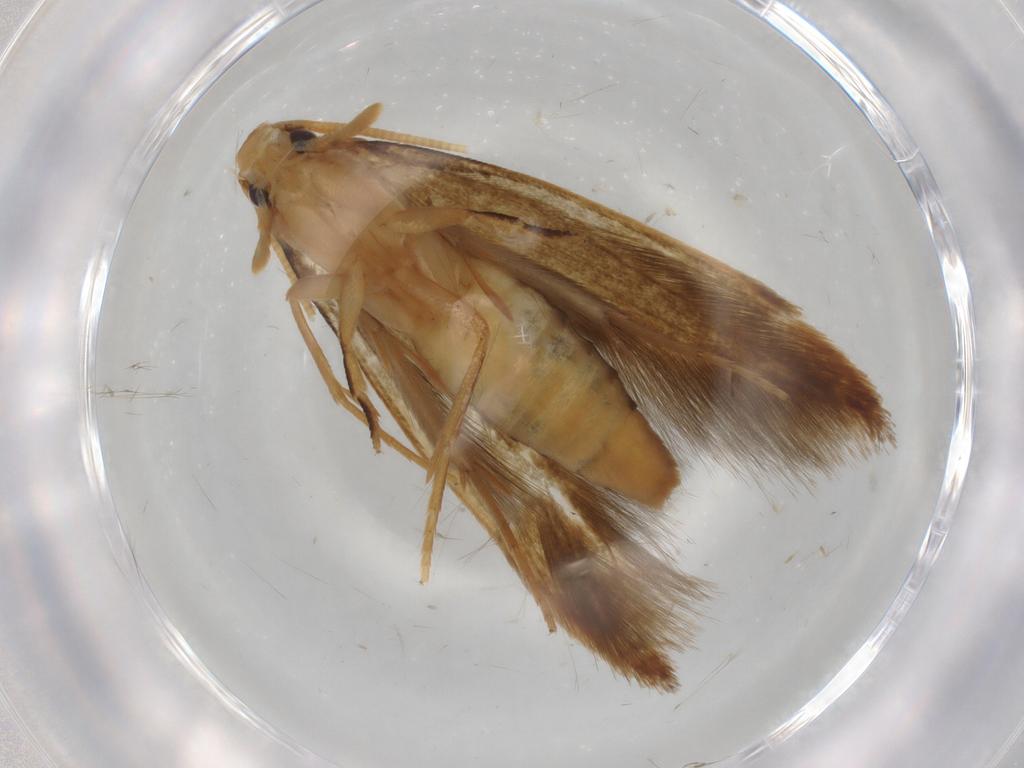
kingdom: Animalia
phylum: Arthropoda
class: Insecta
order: Lepidoptera
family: Tineidae
